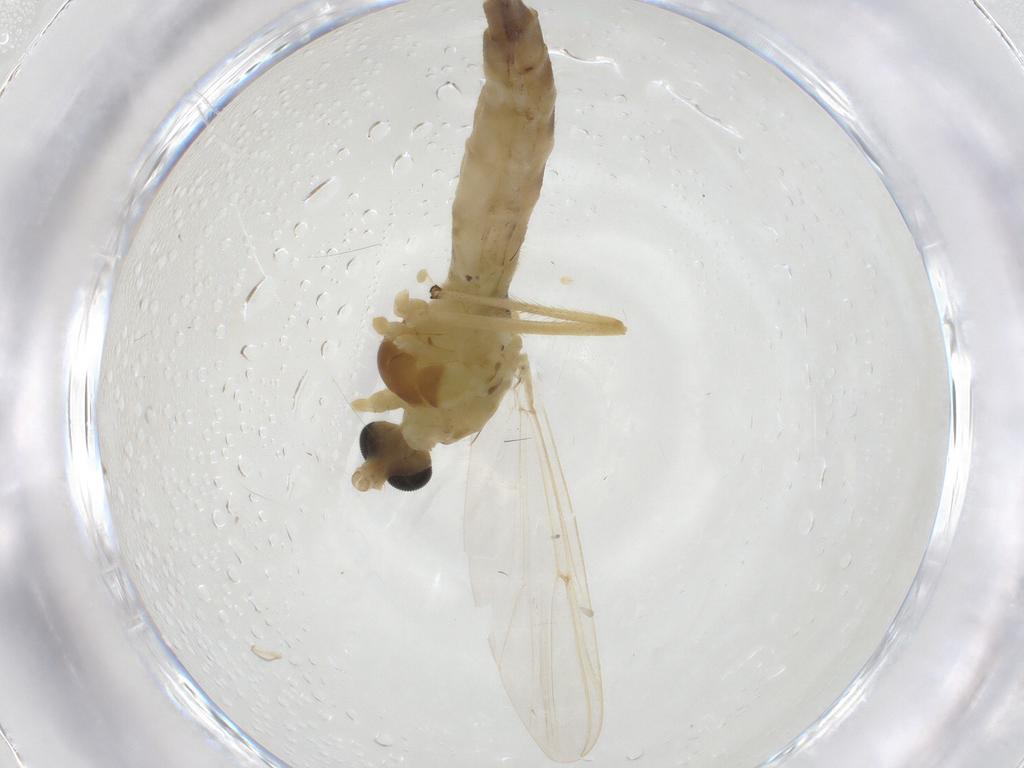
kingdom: Animalia
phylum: Arthropoda
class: Insecta
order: Diptera
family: Chironomidae
